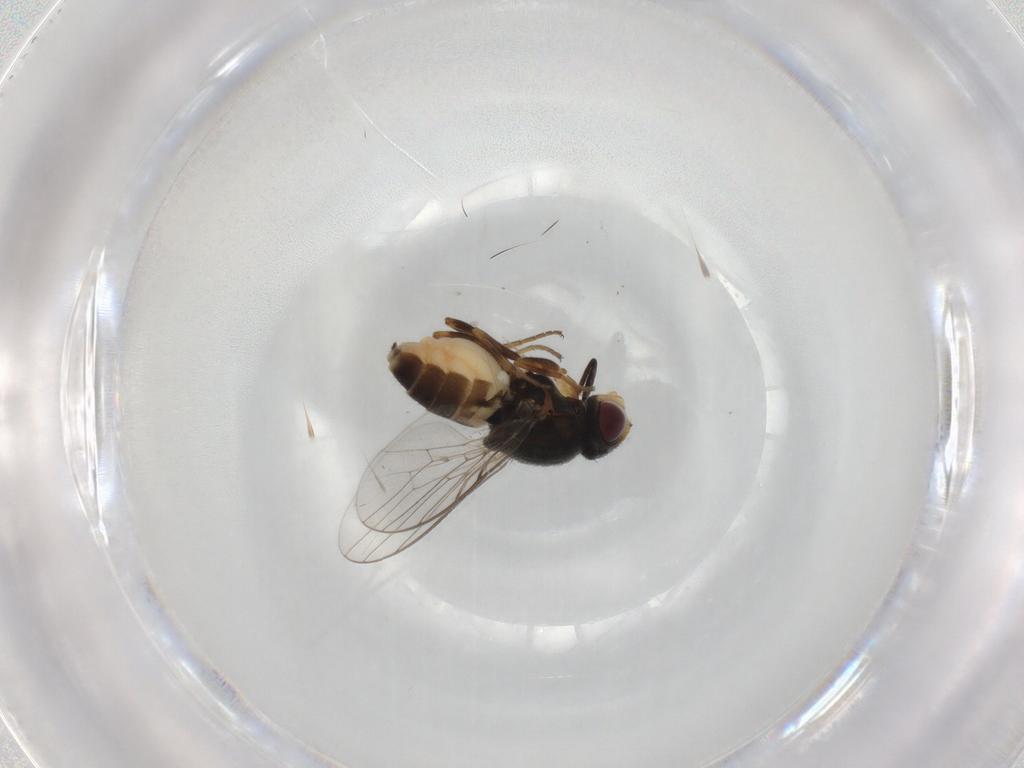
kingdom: Animalia
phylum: Arthropoda
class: Insecta
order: Diptera
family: Chloropidae
